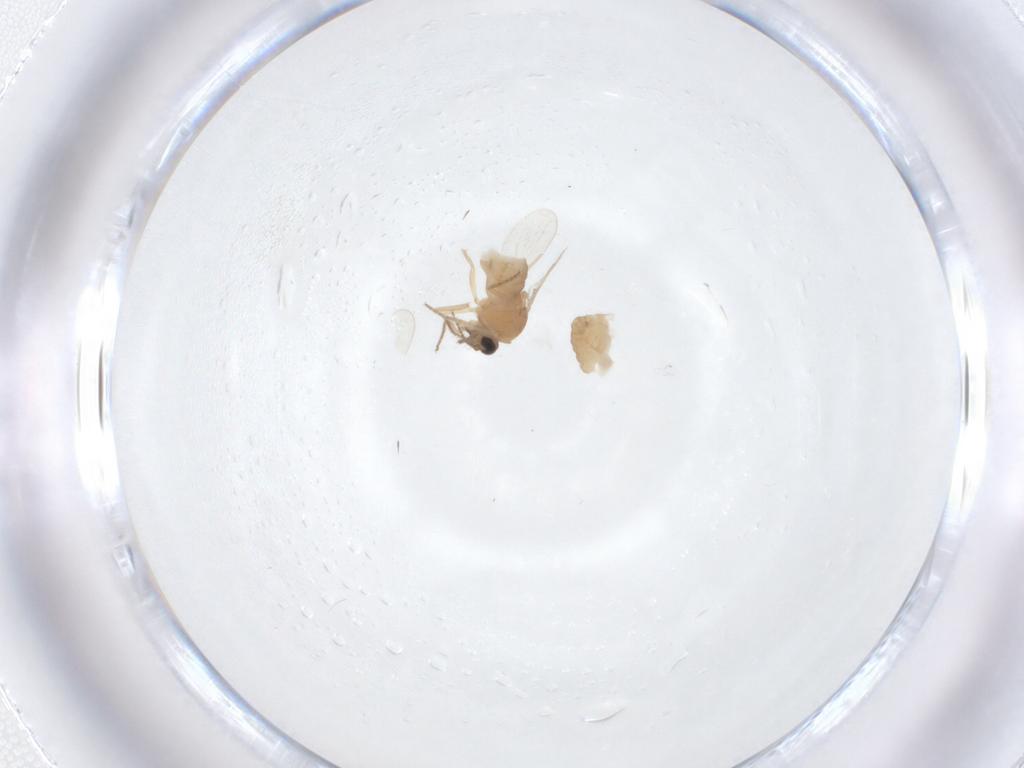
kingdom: Animalia
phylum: Arthropoda
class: Insecta
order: Diptera
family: Ceratopogonidae
